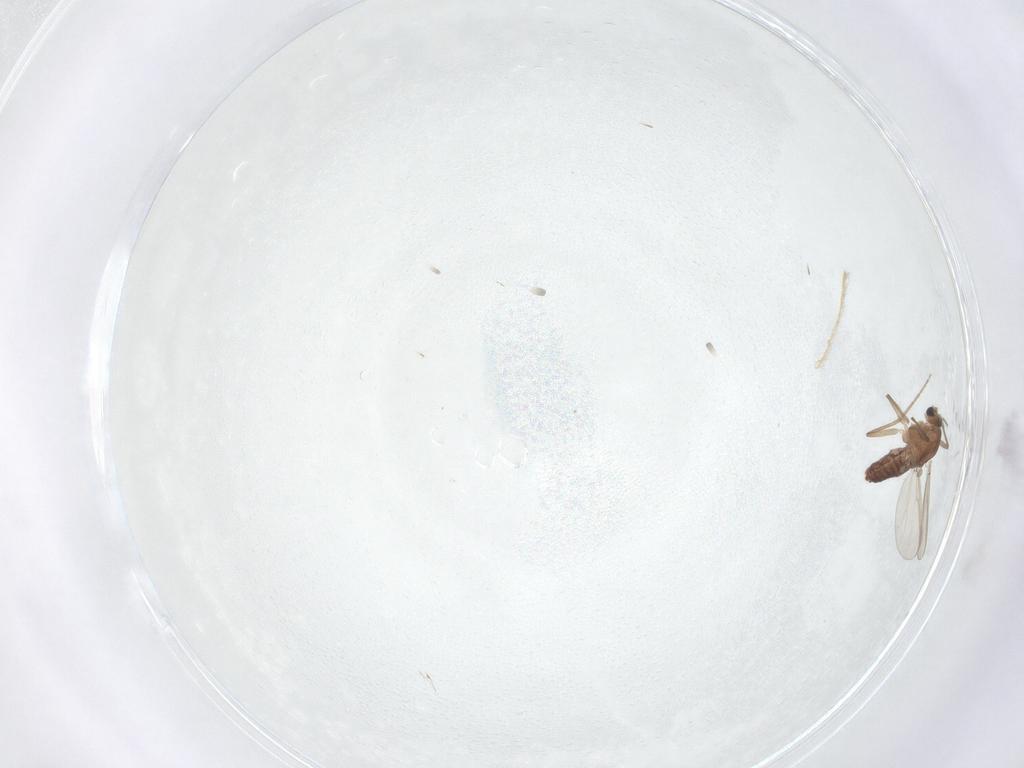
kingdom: Animalia
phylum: Arthropoda
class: Insecta
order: Diptera
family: Chironomidae
